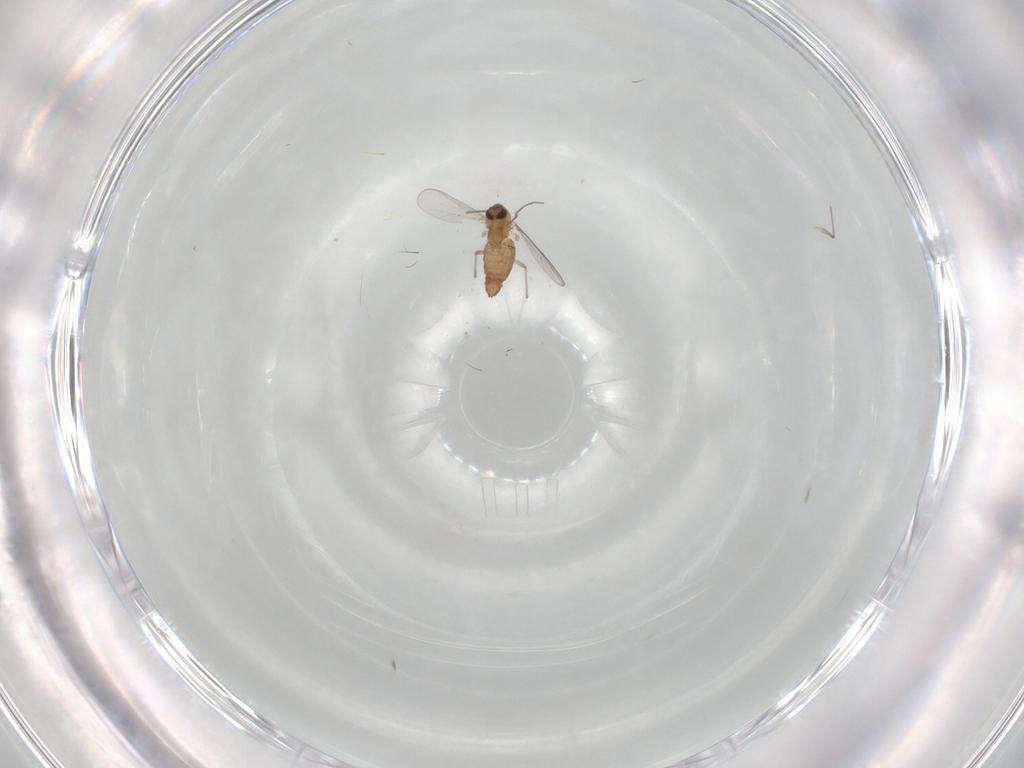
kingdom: Animalia
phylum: Arthropoda
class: Insecta
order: Diptera
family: Chironomidae
